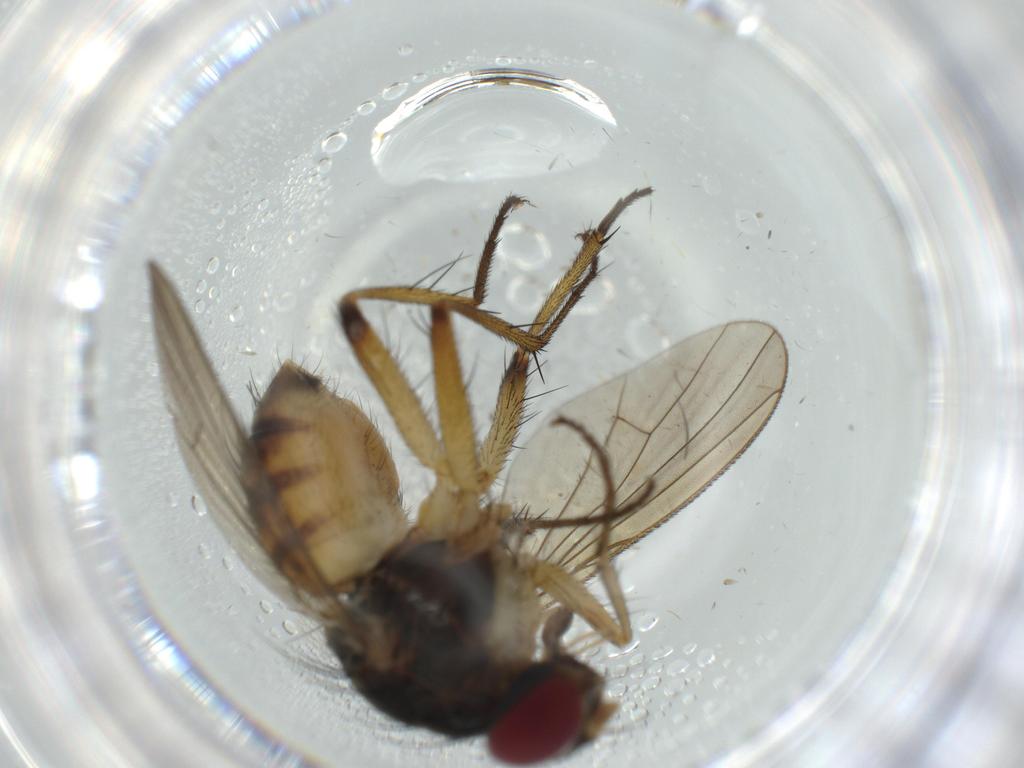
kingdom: Animalia
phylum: Arthropoda
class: Insecta
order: Diptera
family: Muscidae
